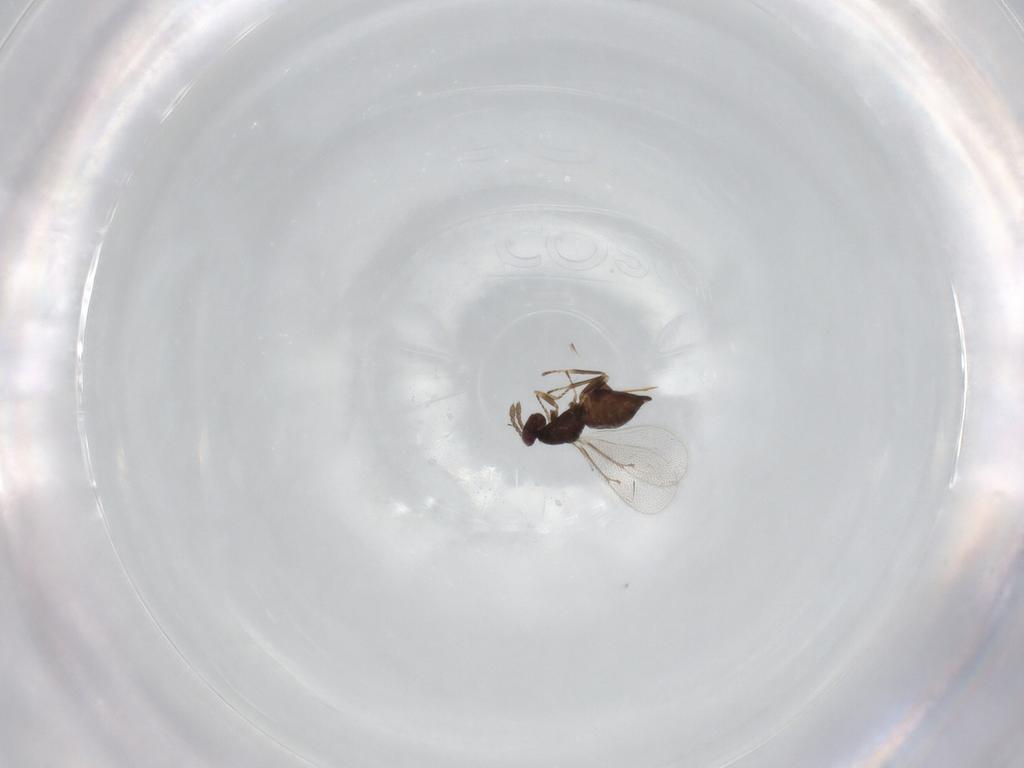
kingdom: Animalia
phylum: Arthropoda
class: Insecta
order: Hymenoptera
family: Eulophidae
